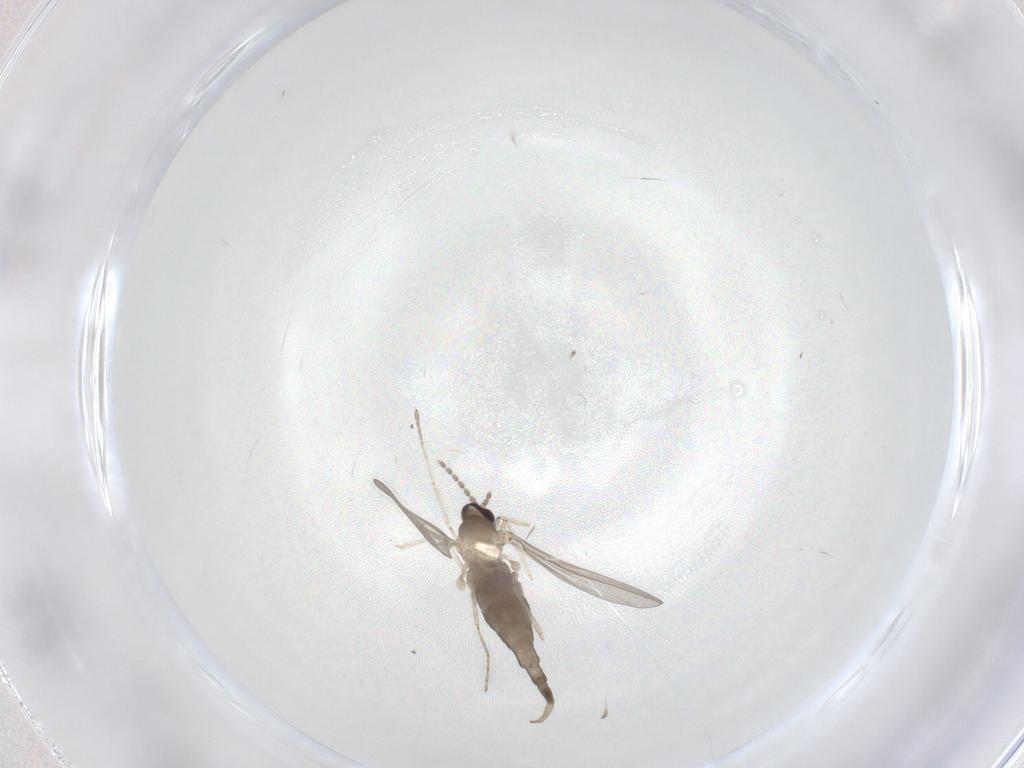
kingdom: Animalia
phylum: Arthropoda
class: Insecta
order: Diptera
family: Cecidomyiidae
